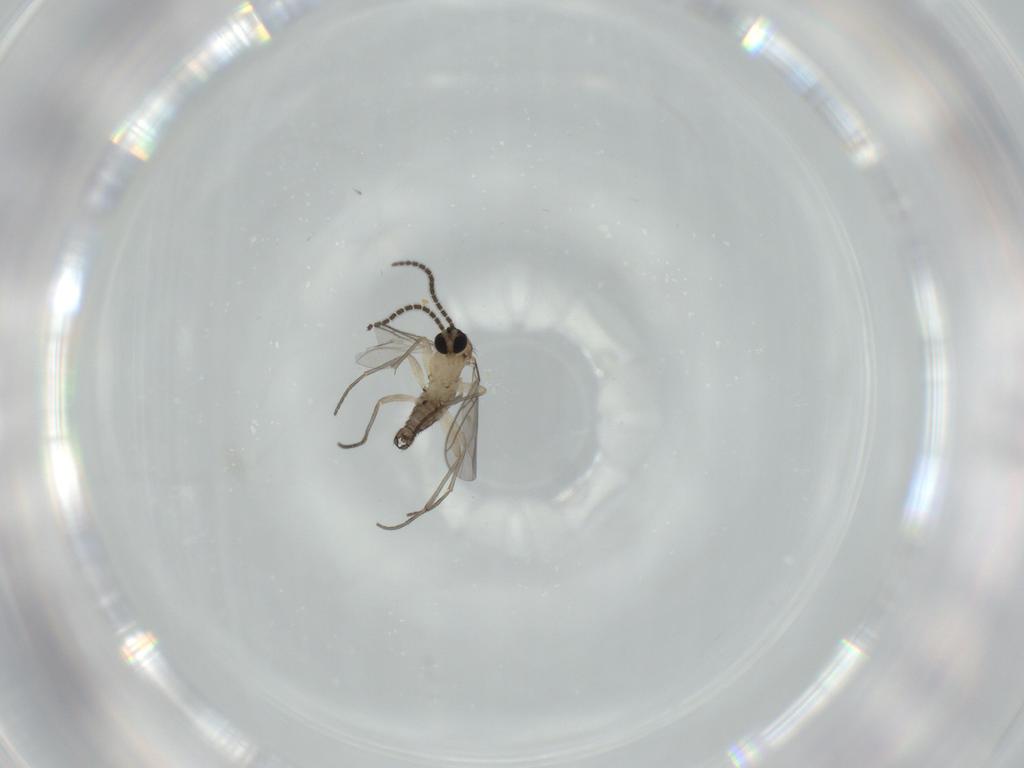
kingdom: Animalia
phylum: Arthropoda
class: Insecta
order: Diptera
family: Sciaridae
